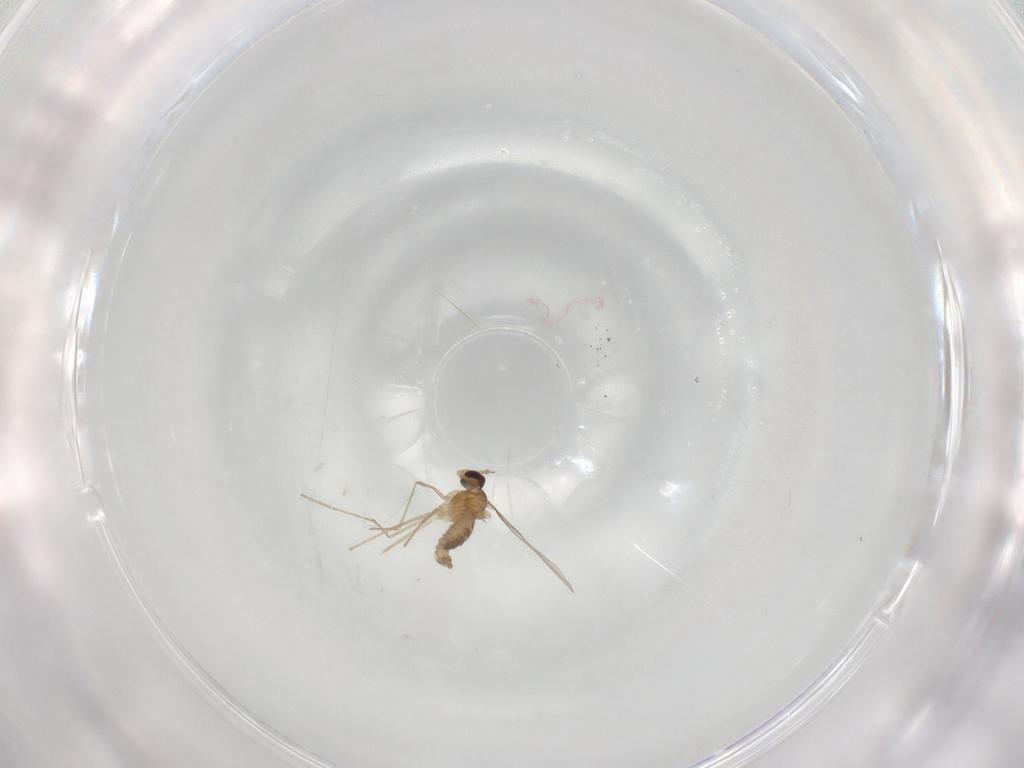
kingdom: Animalia
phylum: Arthropoda
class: Insecta
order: Diptera
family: Cecidomyiidae
